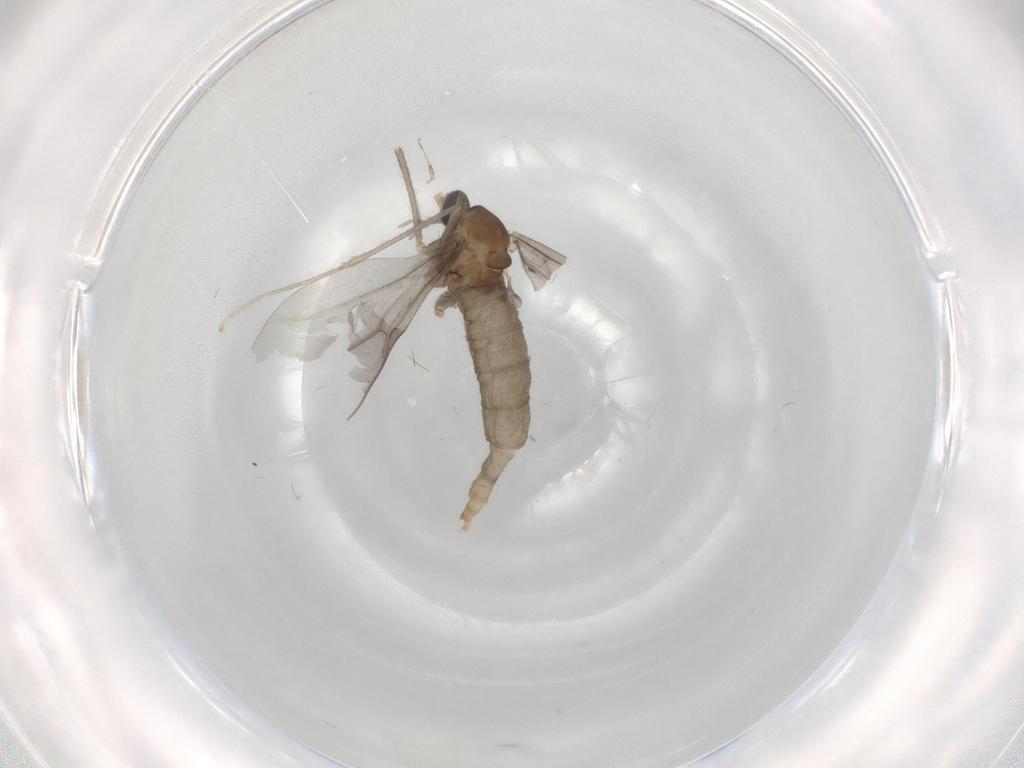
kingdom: Animalia
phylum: Arthropoda
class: Insecta
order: Diptera
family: Cecidomyiidae
